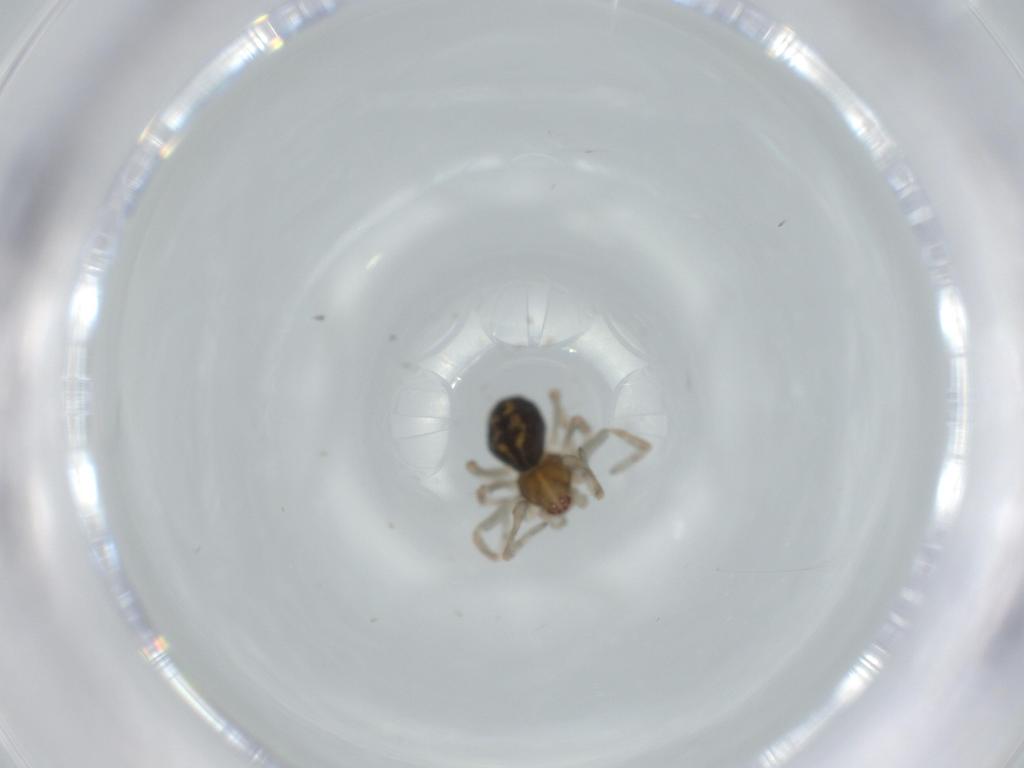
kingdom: Animalia
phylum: Arthropoda
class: Arachnida
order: Araneae
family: Dictynidae
